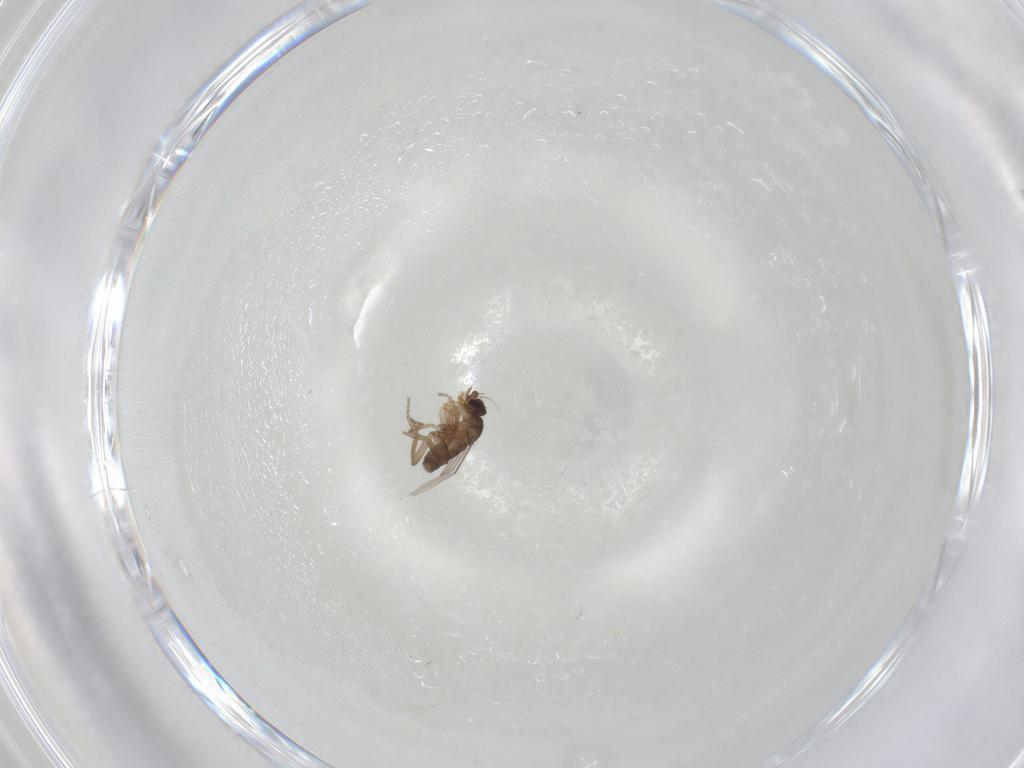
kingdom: Animalia
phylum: Arthropoda
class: Insecta
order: Diptera
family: Phoridae
